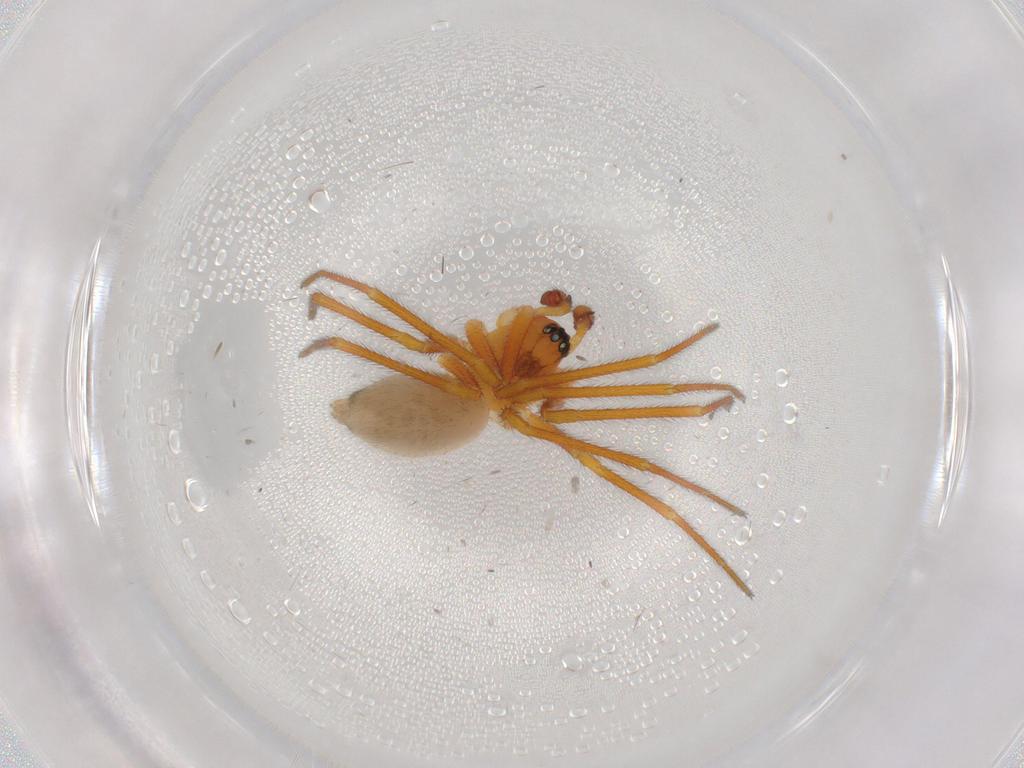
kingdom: Animalia
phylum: Arthropoda
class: Arachnida
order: Araneae
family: Linyphiidae
